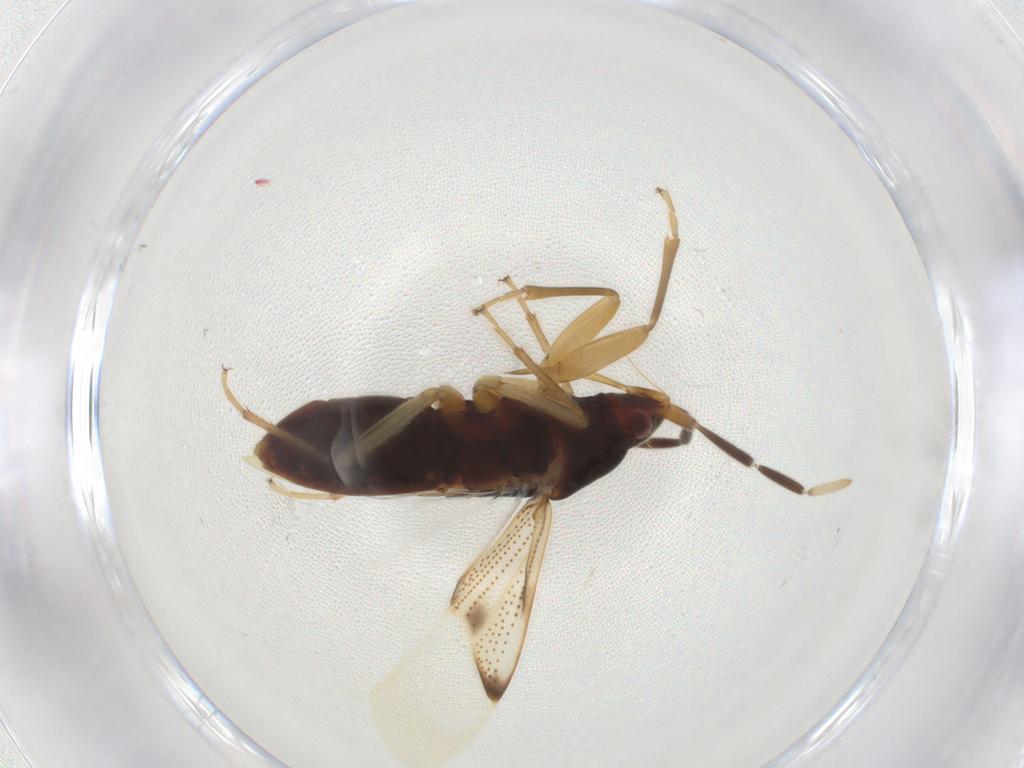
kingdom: Animalia
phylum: Arthropoda
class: Insecta
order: Hemiptera
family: Rhyparochromidae
